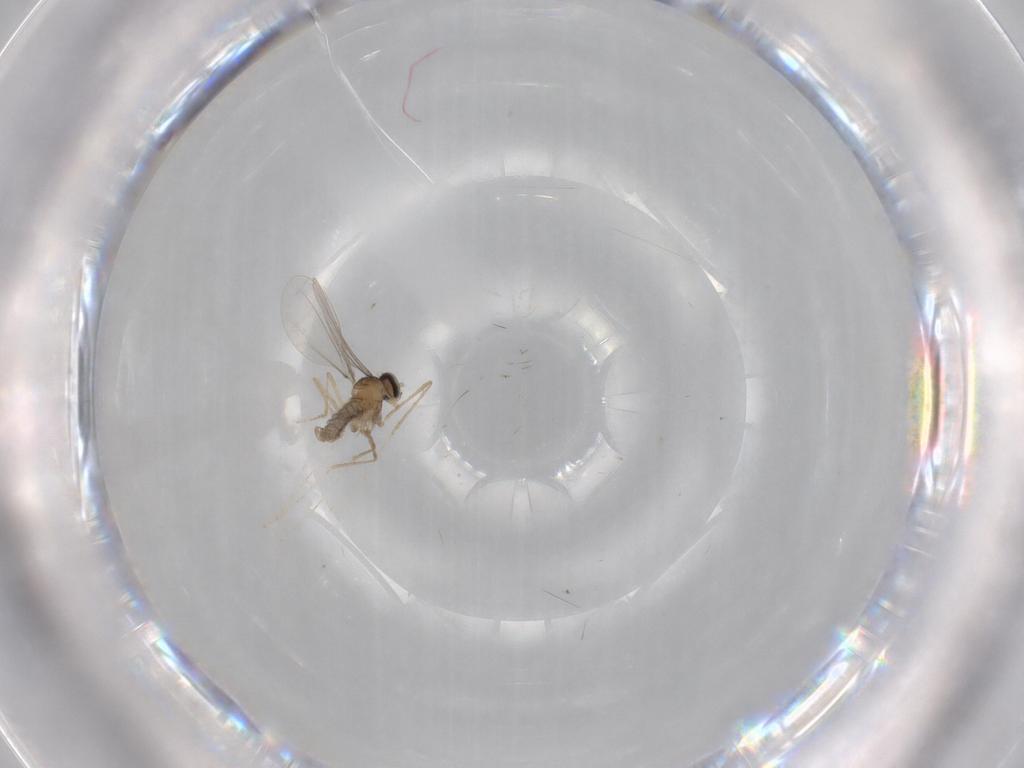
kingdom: Animalia
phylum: Arthropoda
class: Insecta
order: Diptera
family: Cecidomyiidae
